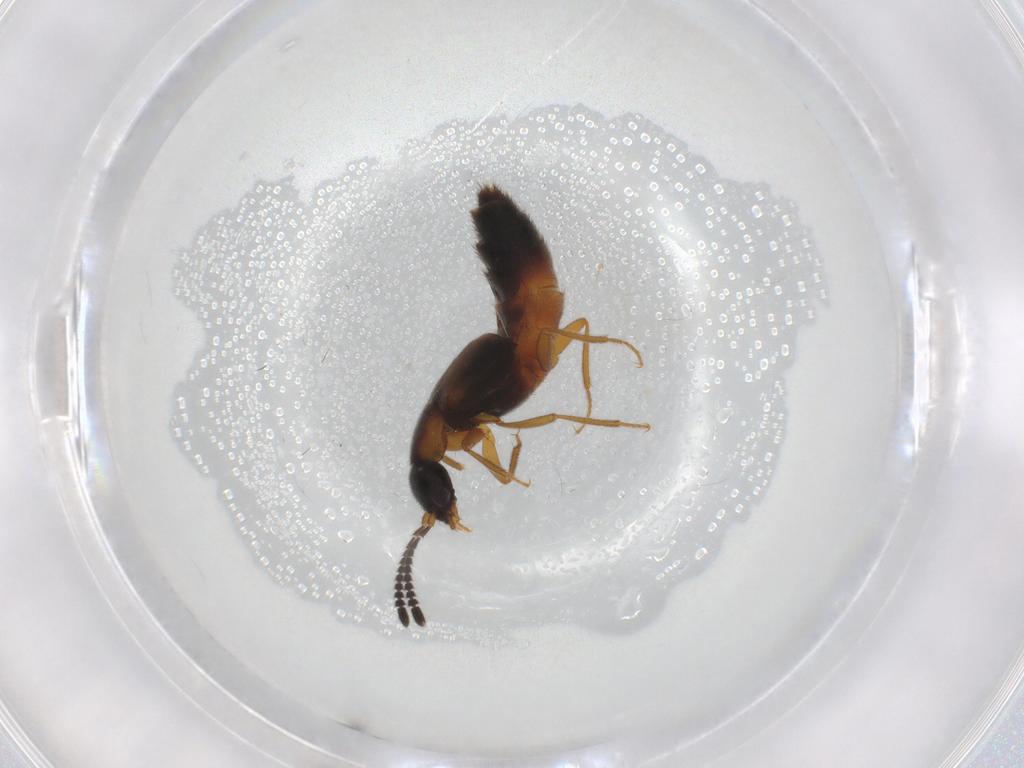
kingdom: Animalia
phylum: Arthropoda
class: Insecta
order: Coleoptera
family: Staphylinidae
